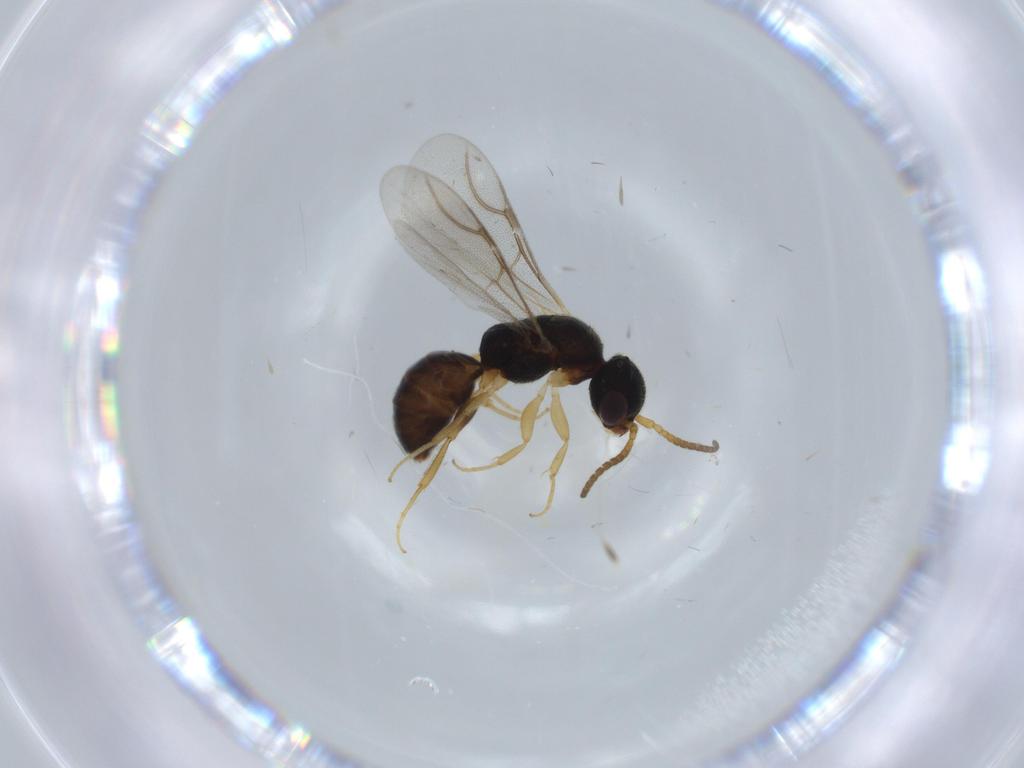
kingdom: Animalia
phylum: Arthropoda
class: Insecta
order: Hymenoptera
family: Bethylidae
